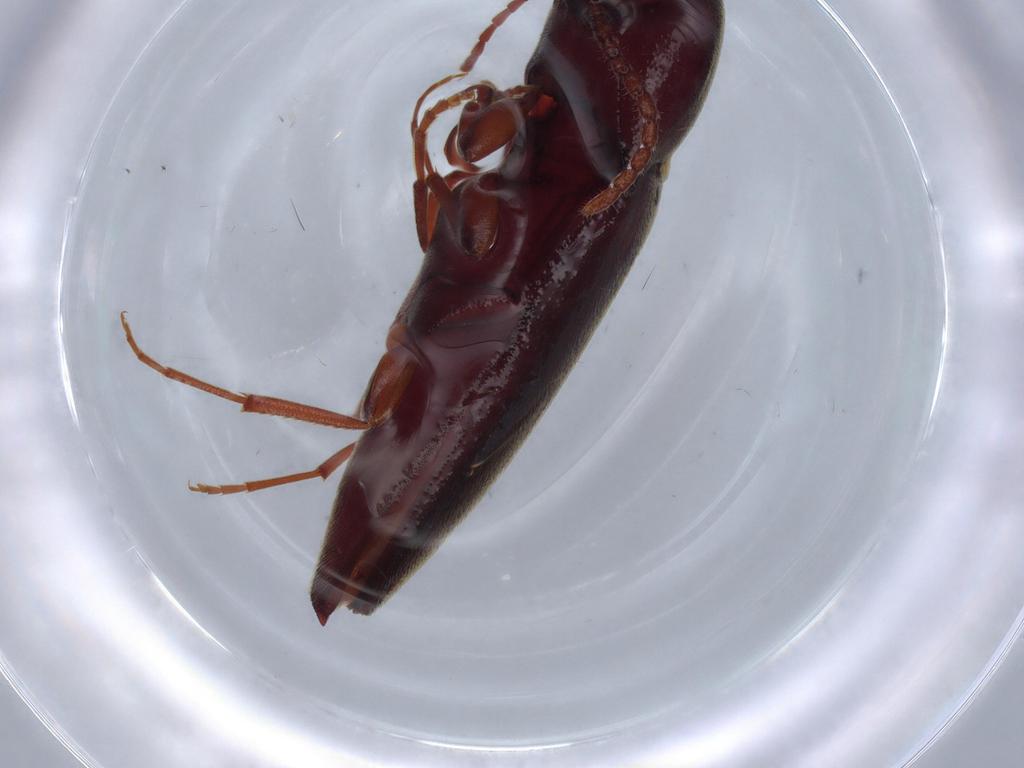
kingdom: Animalia
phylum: Arthropoda
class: Insecta
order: Coleoptera
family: Eucnemidae
